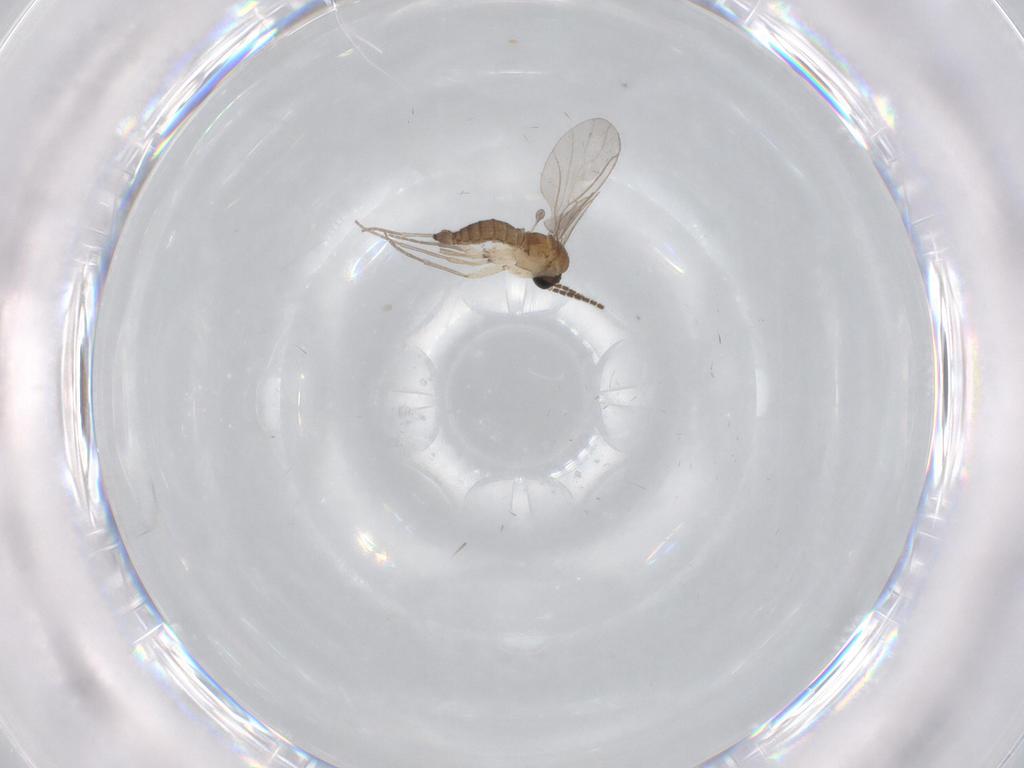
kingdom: Animalia
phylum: Arthropoda
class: Insecta
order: Diptera
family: Sciaridae
